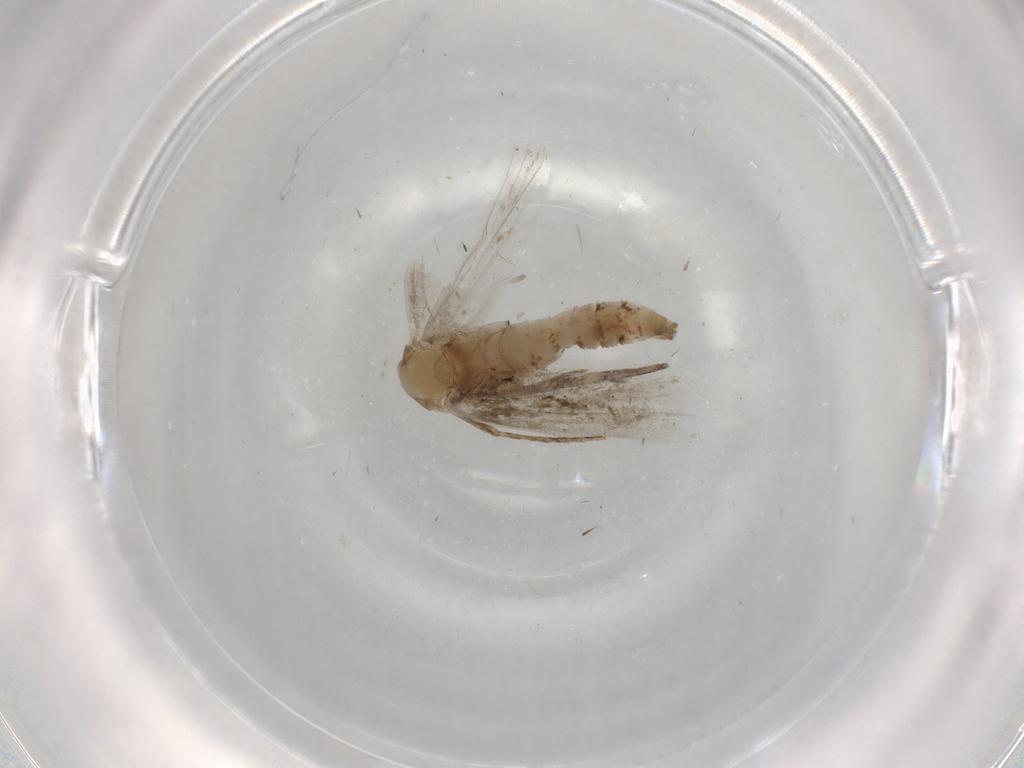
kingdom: Animalia
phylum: Arthropoda
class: Insecta
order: Lepidoptera
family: Tineidae
